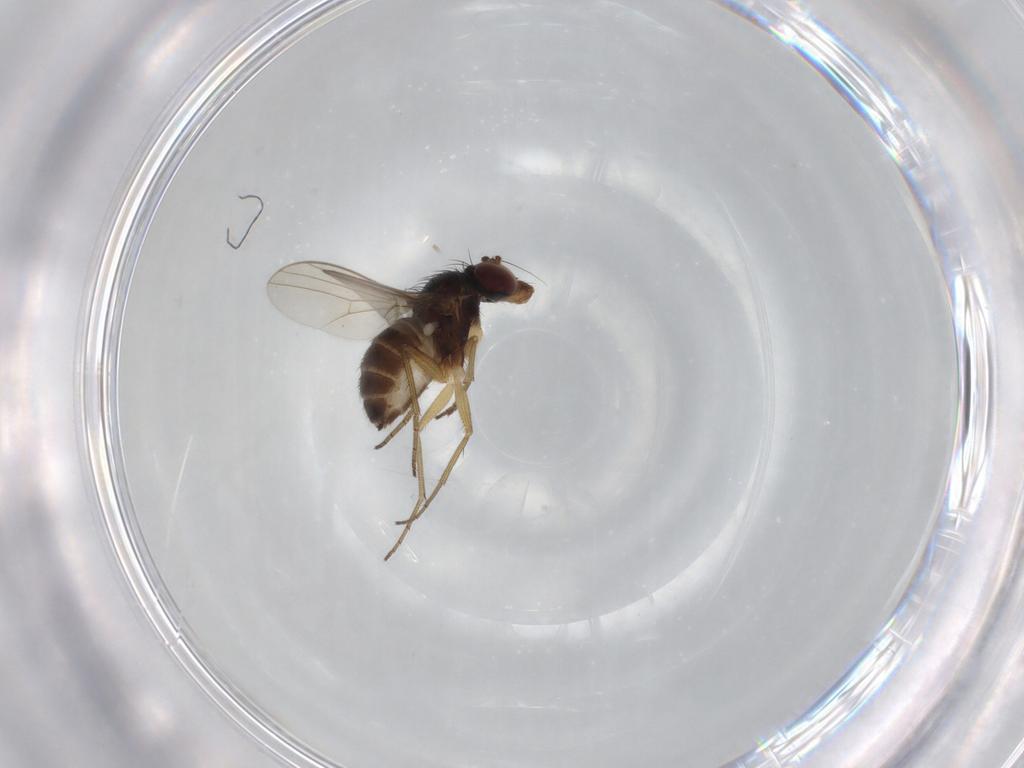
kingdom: Animalia
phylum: Arthropoda
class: Insecta
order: Diptera
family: Dolichopodidae
